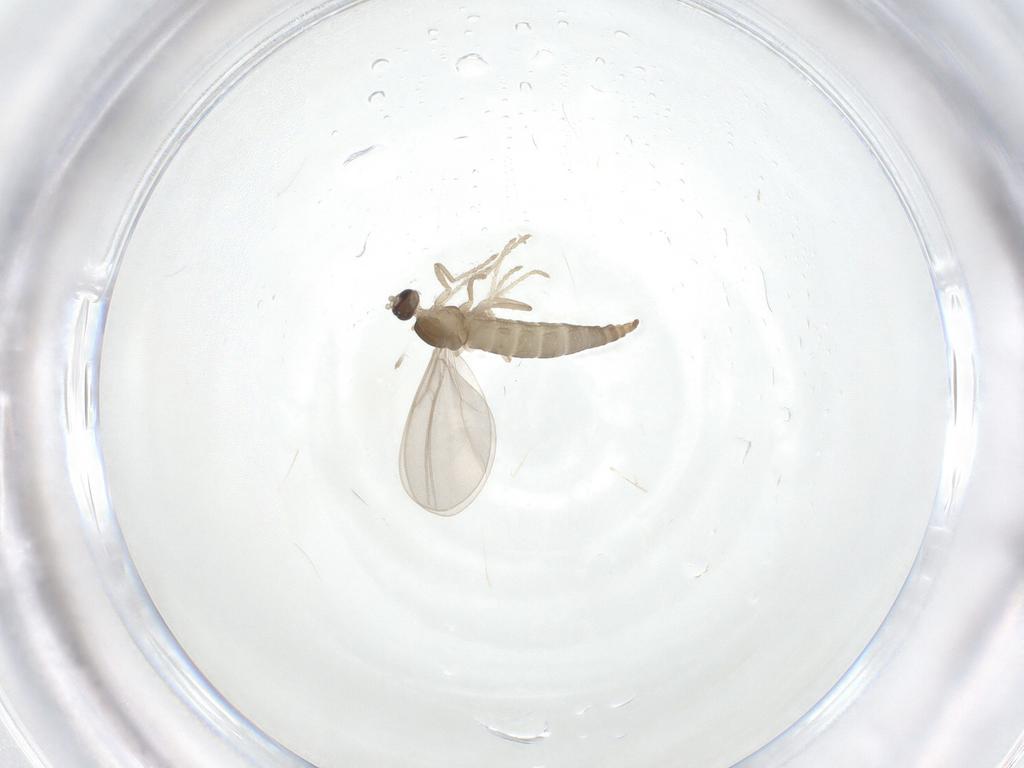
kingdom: Animalia
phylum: Arthropoda
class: Insecta
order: Diptera
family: Cecidomyiidae
